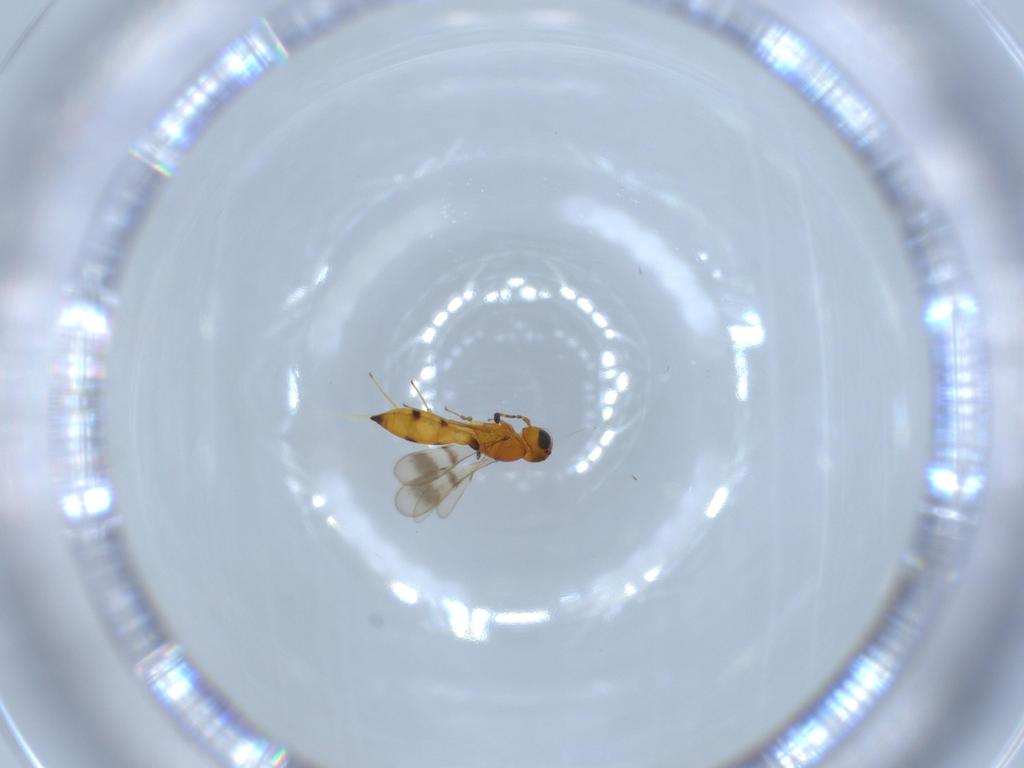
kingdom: Animalia
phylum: Arthropoda
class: Insecta
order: Hymenoptera
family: Scelionidae
